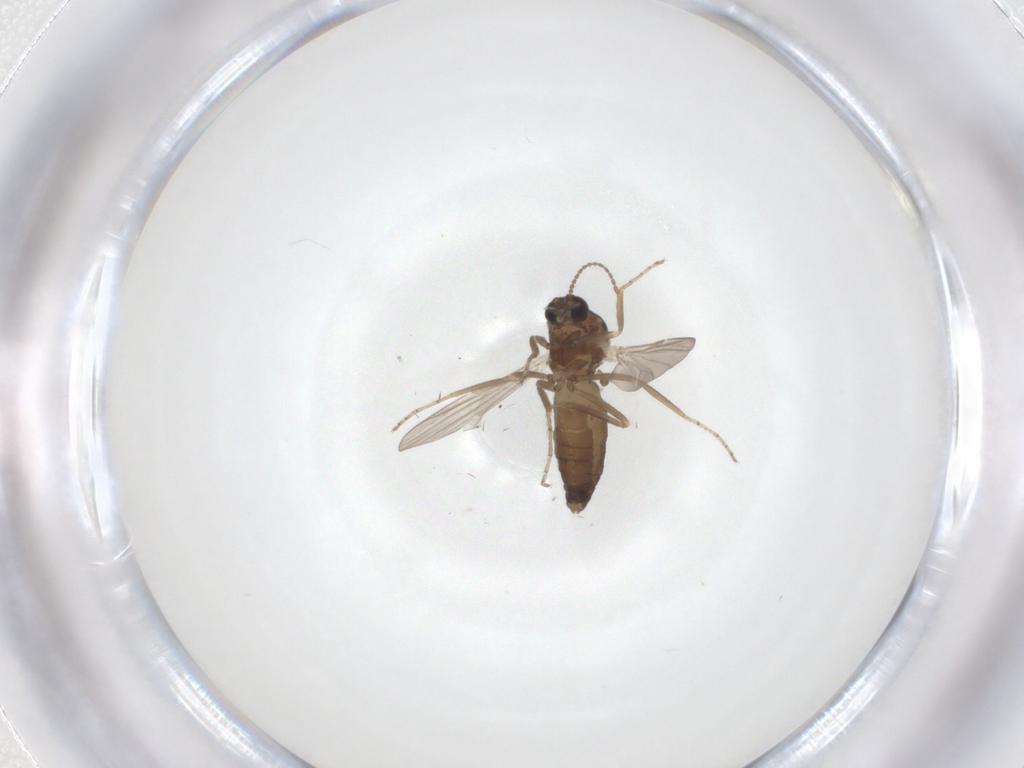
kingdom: Animalia
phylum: Arthropoda
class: Insecta
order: Diptera
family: Ceratopogonidae
